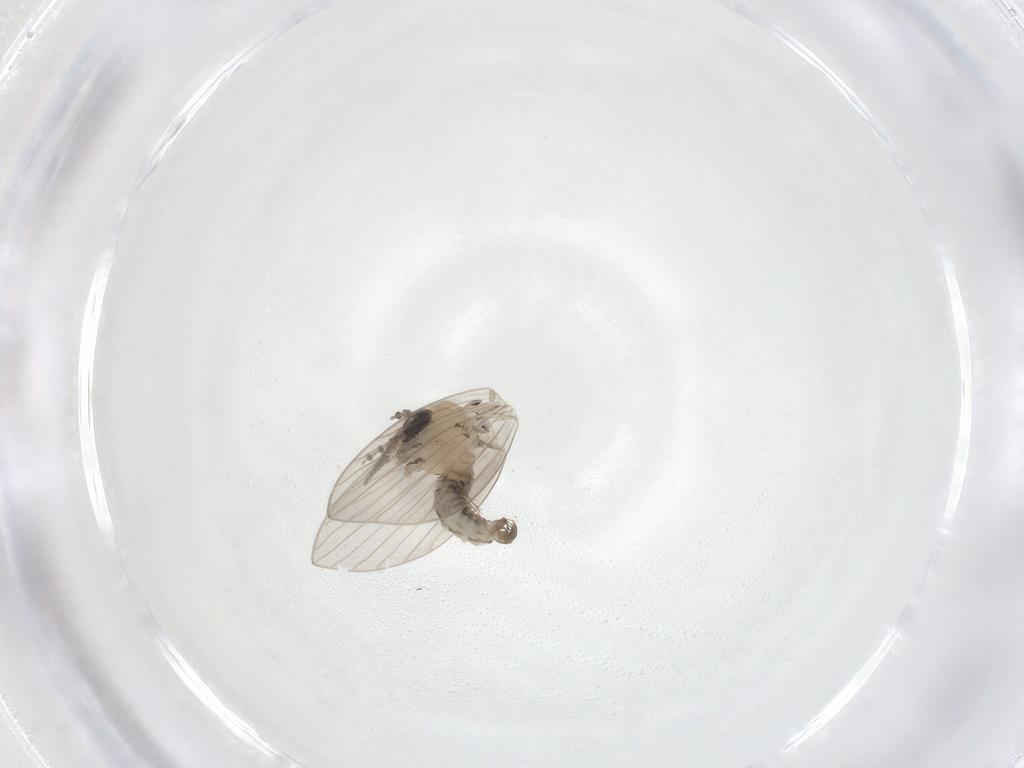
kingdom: Animalia
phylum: Arthropoda
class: Insecta
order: Diptera
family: Psychodidae
